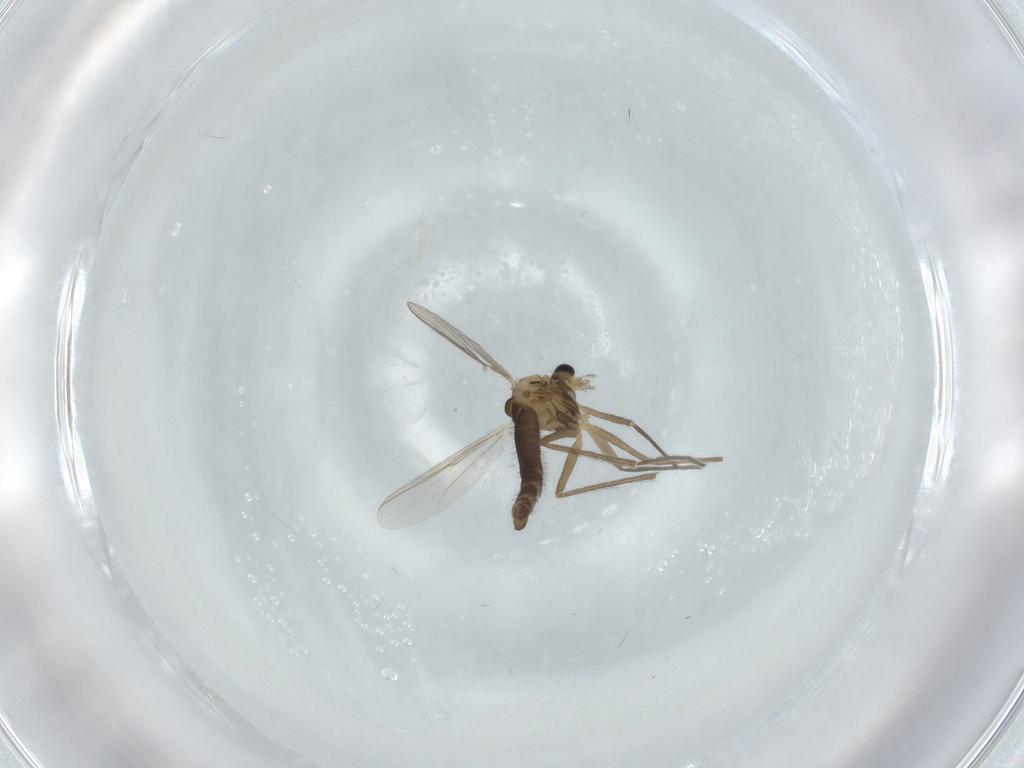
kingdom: Animalia
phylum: Arthropoda
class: Insecta
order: Diptera
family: Chironomidae
